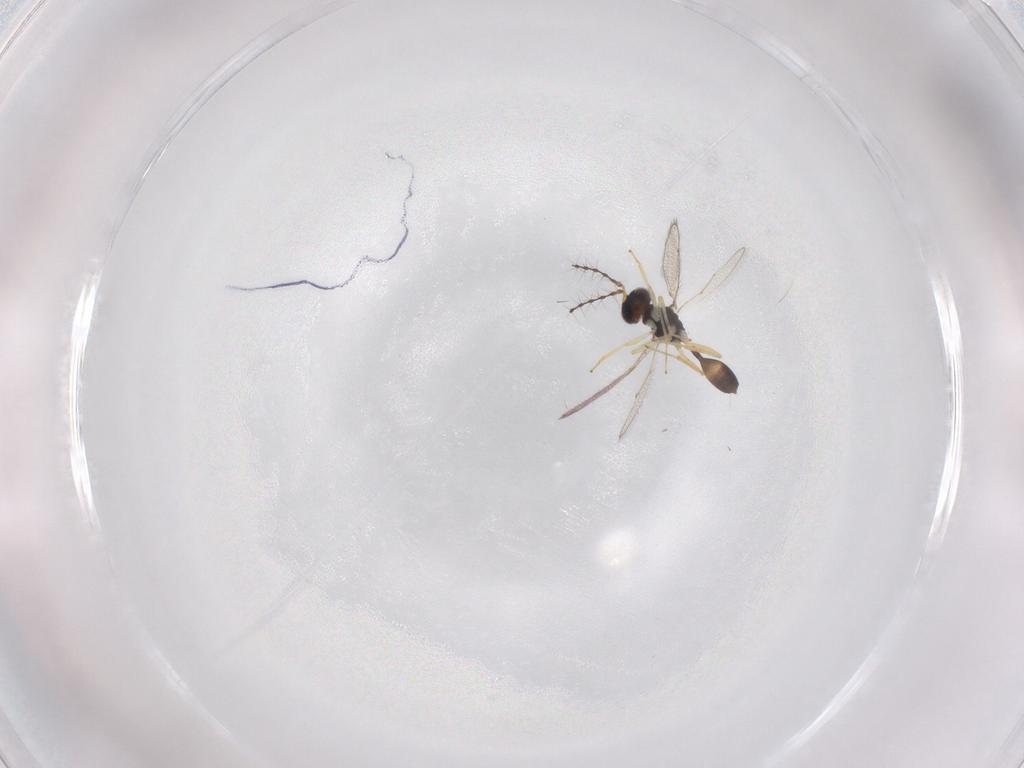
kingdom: Animalia
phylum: Arthropoda
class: Insecta
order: Hymenoptera
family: Diparidae
